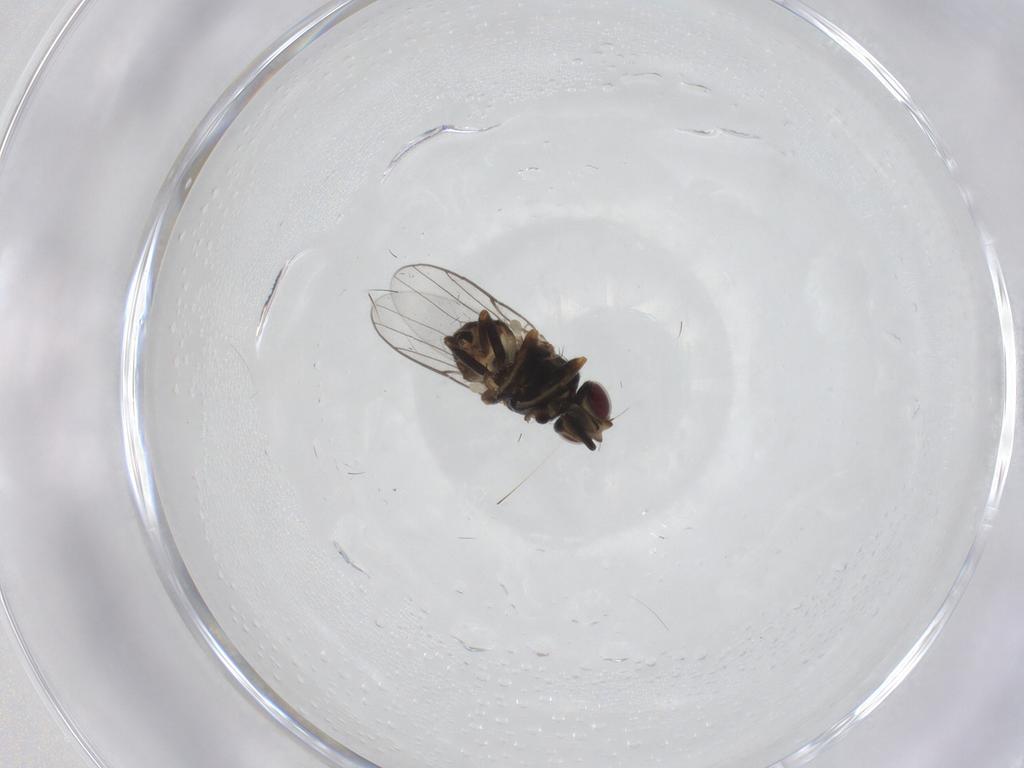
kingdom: Animalia
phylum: Arthropoda
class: Insecta
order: Diptera
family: Chloropidae
